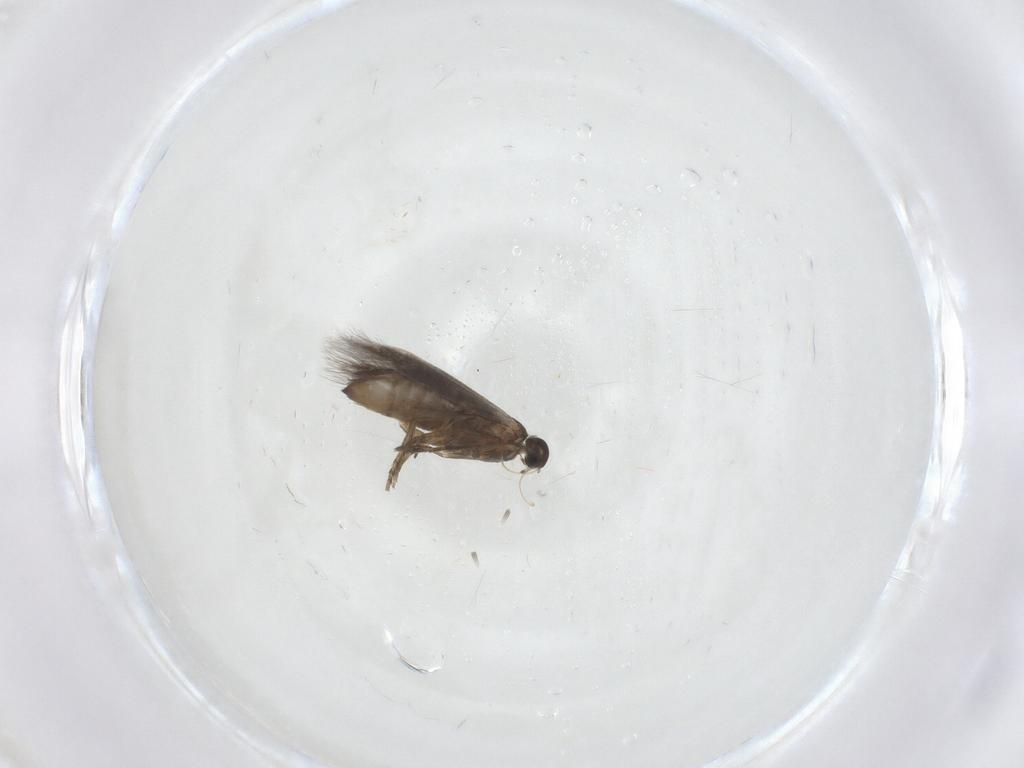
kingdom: Animalia
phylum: Arthropoda
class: Insecta
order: Lepidoptera
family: Heliozelidae
